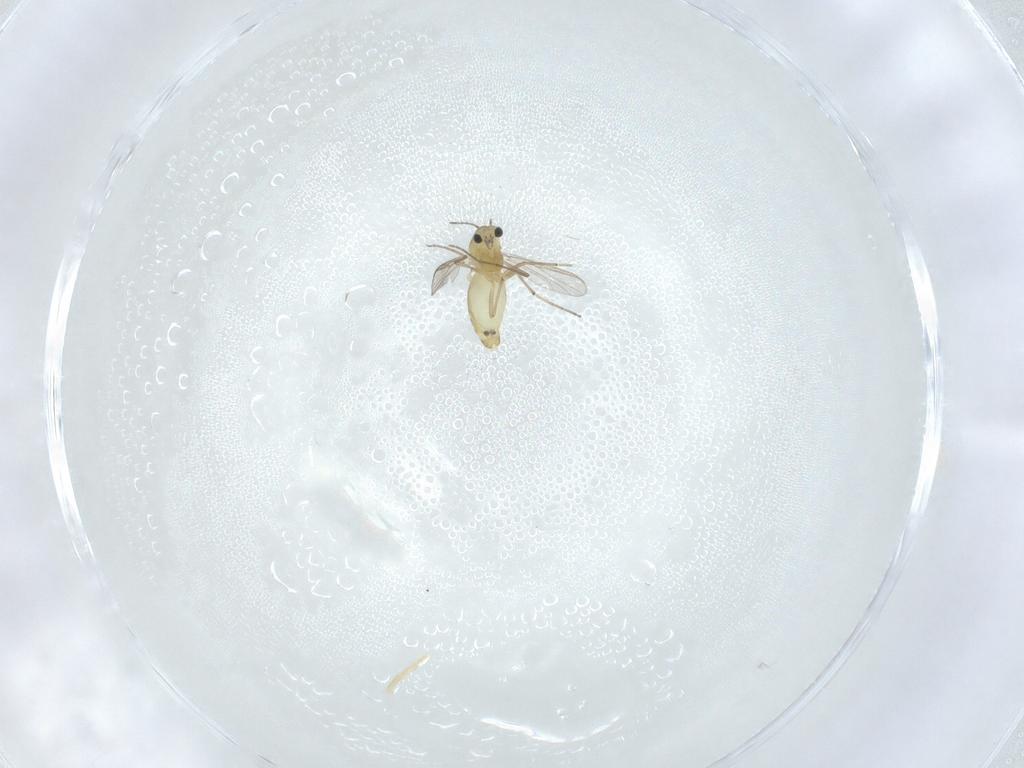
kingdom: Animalia
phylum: Arthropoda
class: Insecta
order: Diptera
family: Chironomidae
